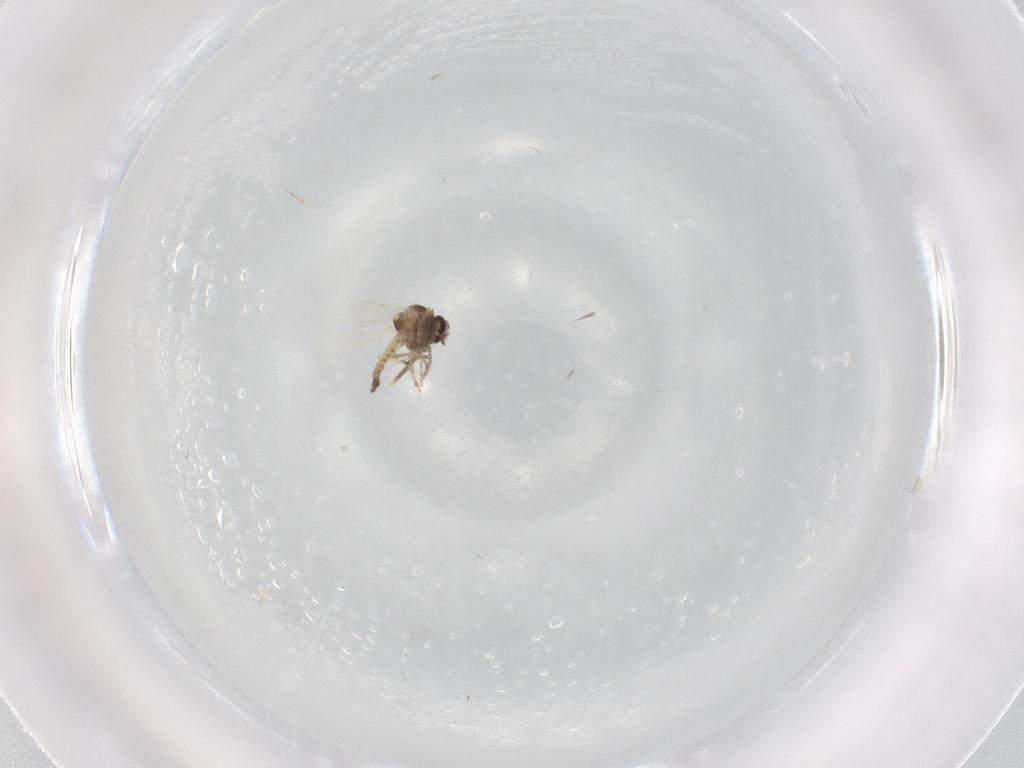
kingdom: Animalia
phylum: Arthropoda
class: Insecta
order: Diptera
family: Ceratopogonidae
